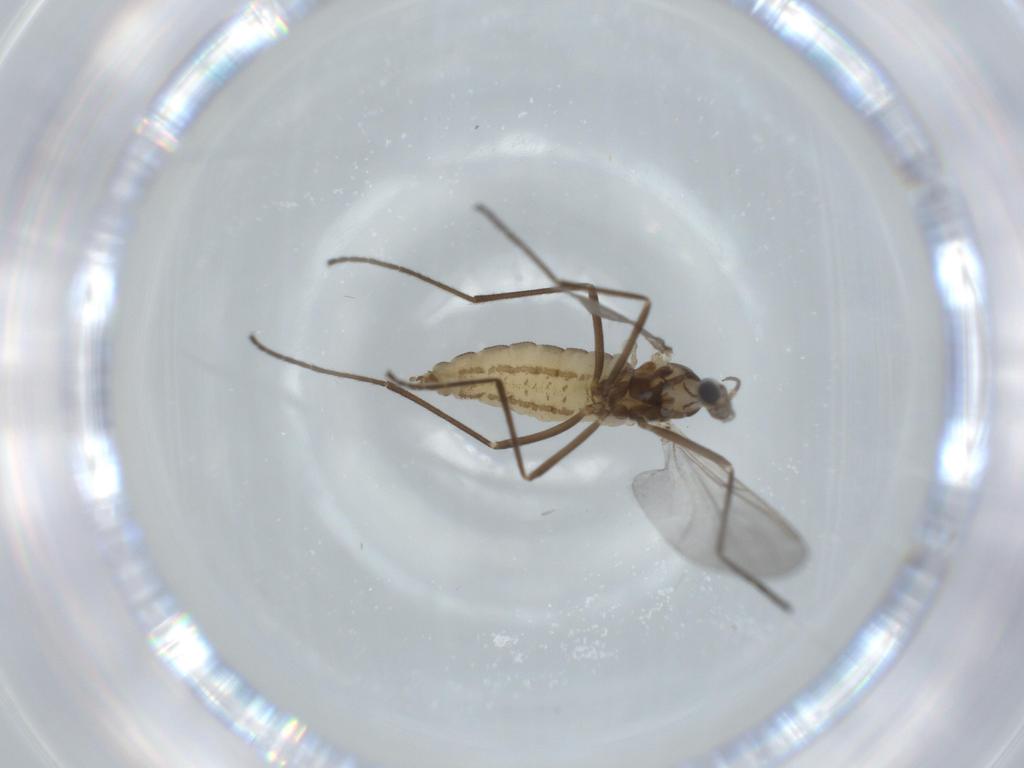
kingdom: Animalia
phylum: Arthropoda
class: Insecta
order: Diptera
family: Cecidomyiidae
